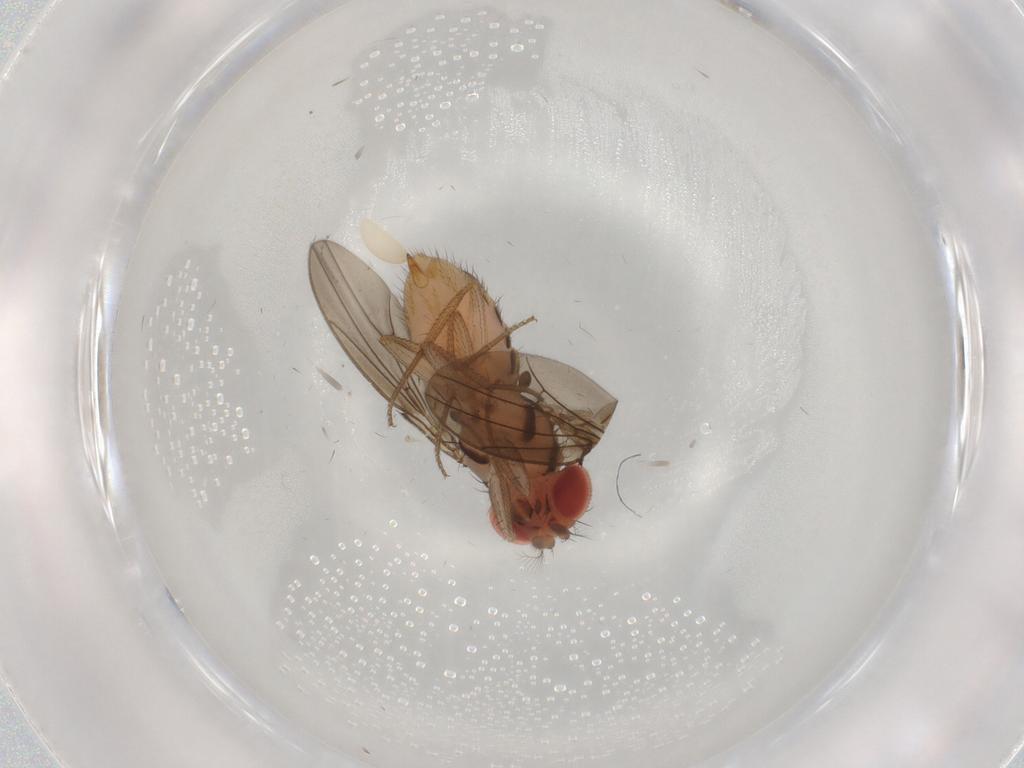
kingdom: Animalia
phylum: Arthropoda
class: Insecta
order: Diptera
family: Drosophilidae
